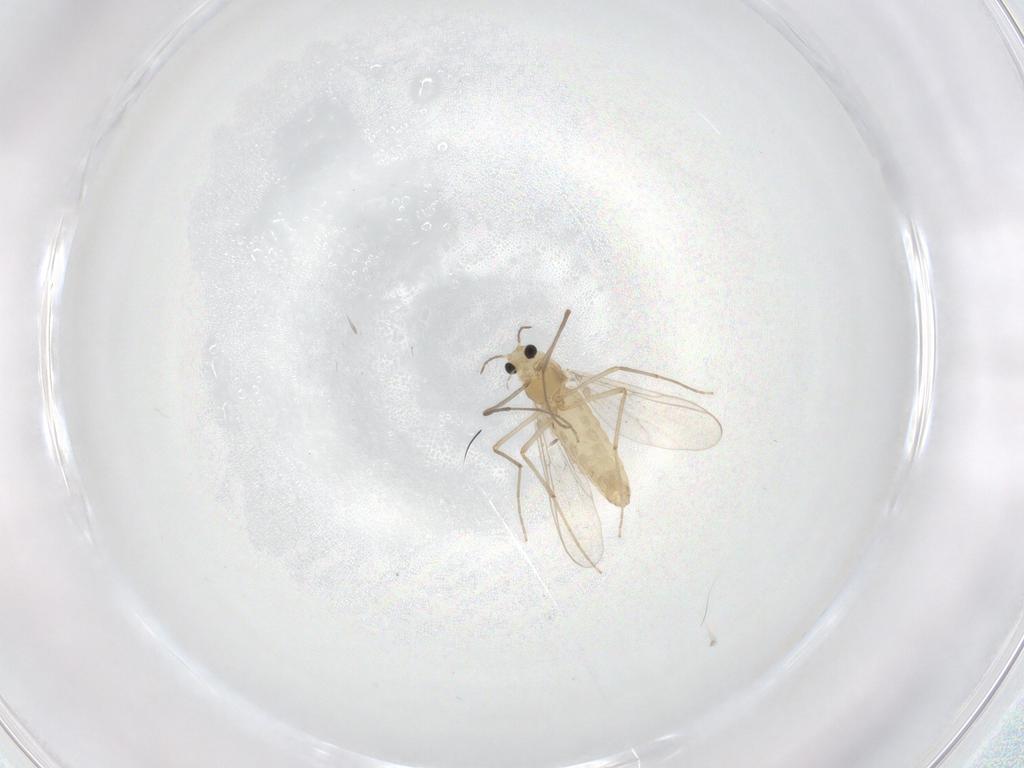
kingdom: Animalia
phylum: Arthropoda
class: Insecta
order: Diptera
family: Chironomidae
